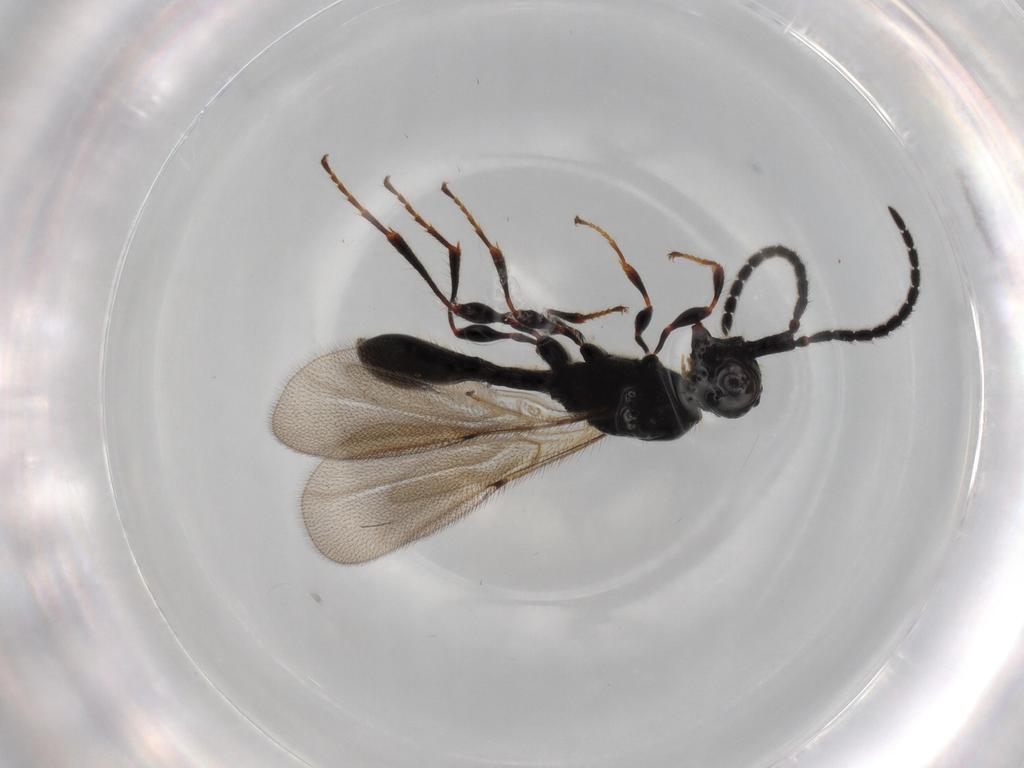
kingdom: Animalia
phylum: Arthropoda
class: Insecta
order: Hymenoptera
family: Diapriidae
